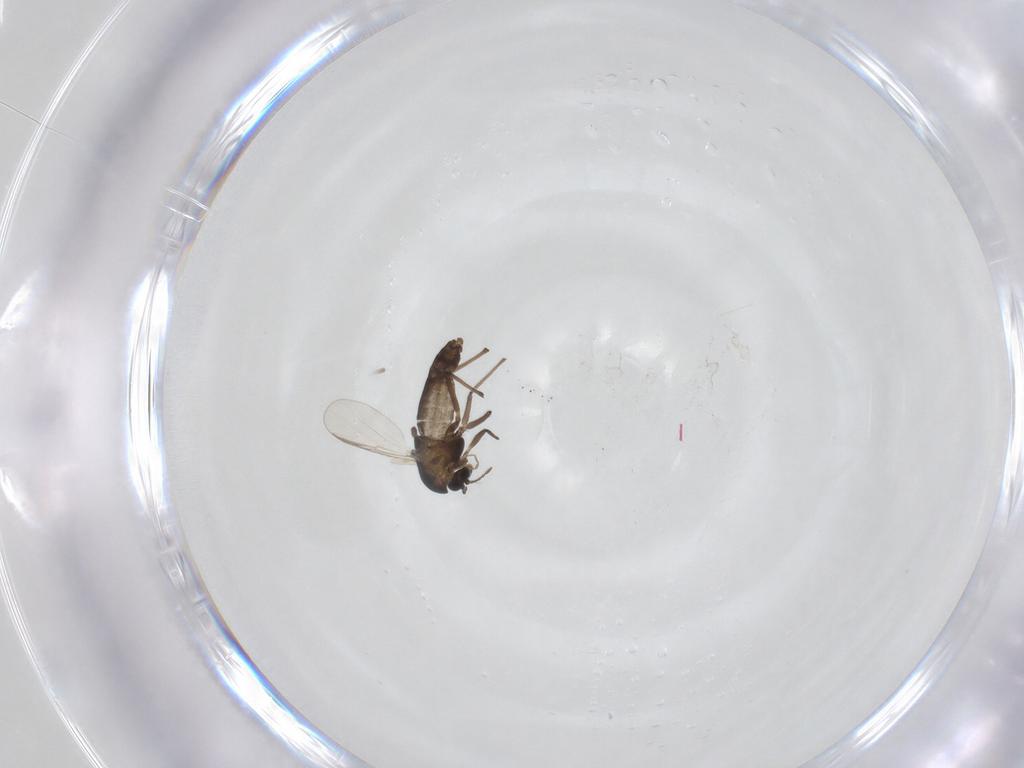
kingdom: Animalia
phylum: Arthropoda
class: Insecta
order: Diptera
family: Chironomidae
